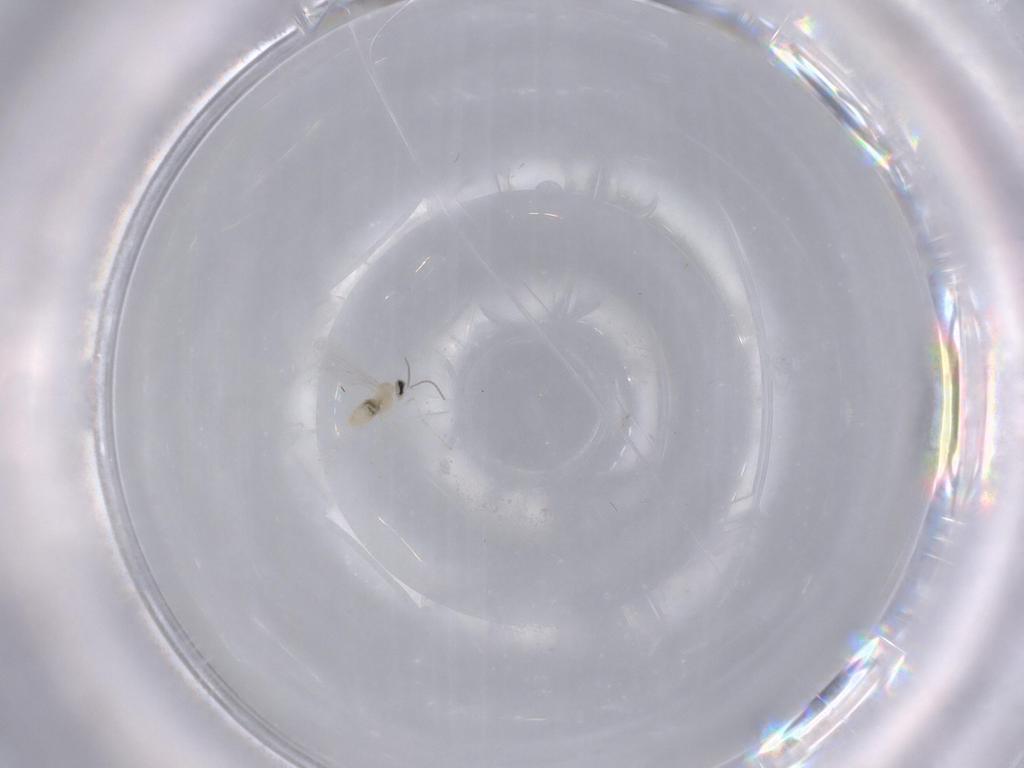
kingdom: Animalia
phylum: Arthropoda
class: Insecta
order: Diptera
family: Cecidomyiidae
